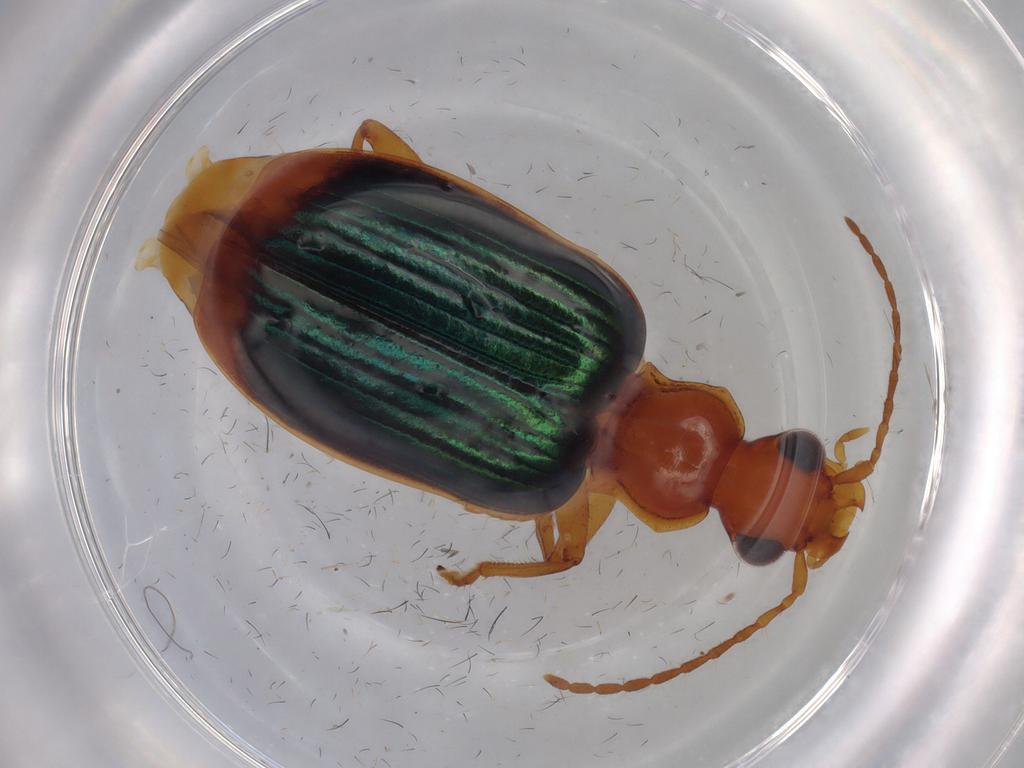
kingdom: Animalia
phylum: Arthropoda
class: Insecta
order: Coleoptera
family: Carabidae
